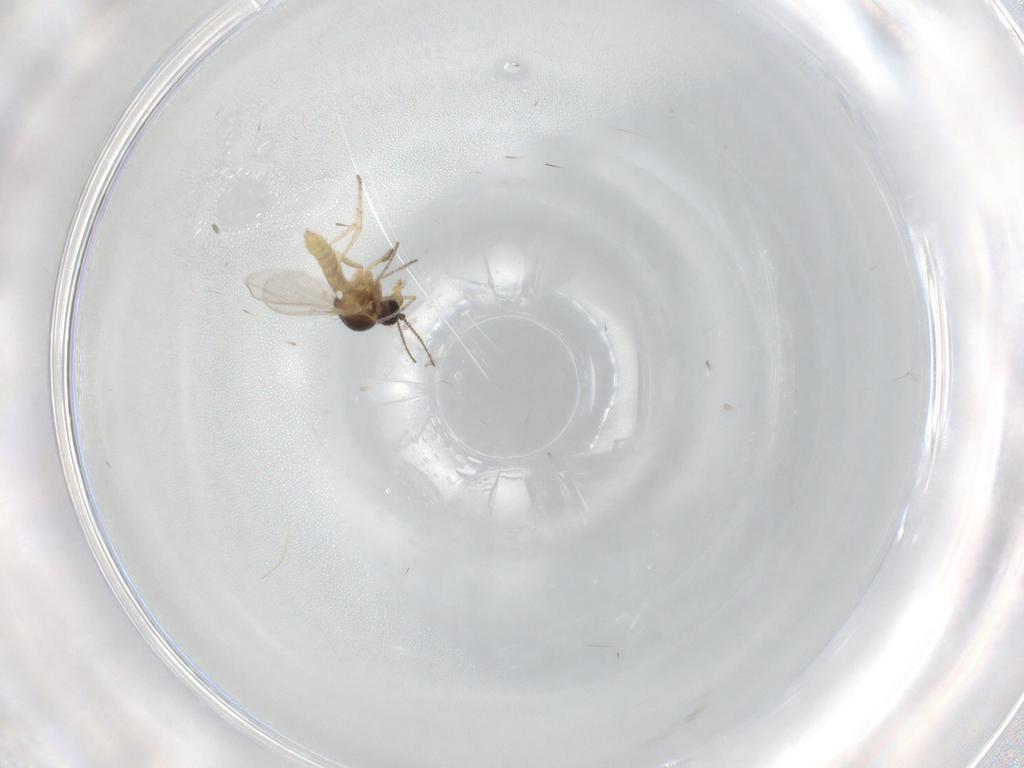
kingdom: Animalia
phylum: Arthropoda
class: Insecta
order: Diptera
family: Ceratopogonidae
